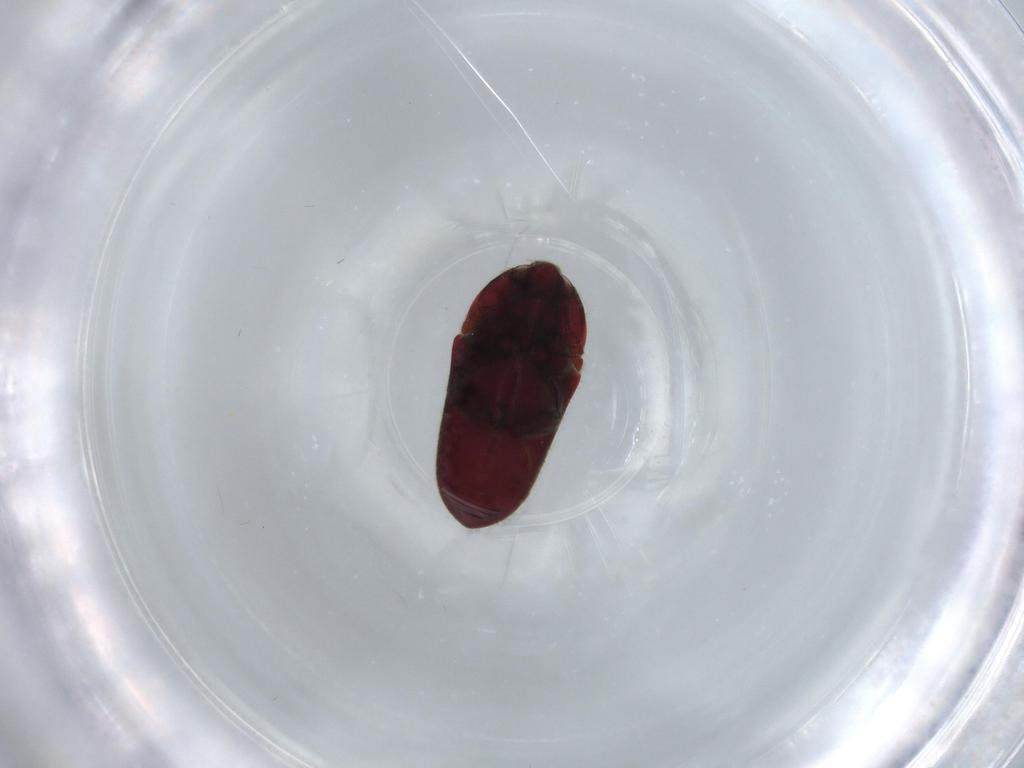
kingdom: Animalia
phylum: Arthropoda
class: Insecta
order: Coleoptera
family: Throscidae
